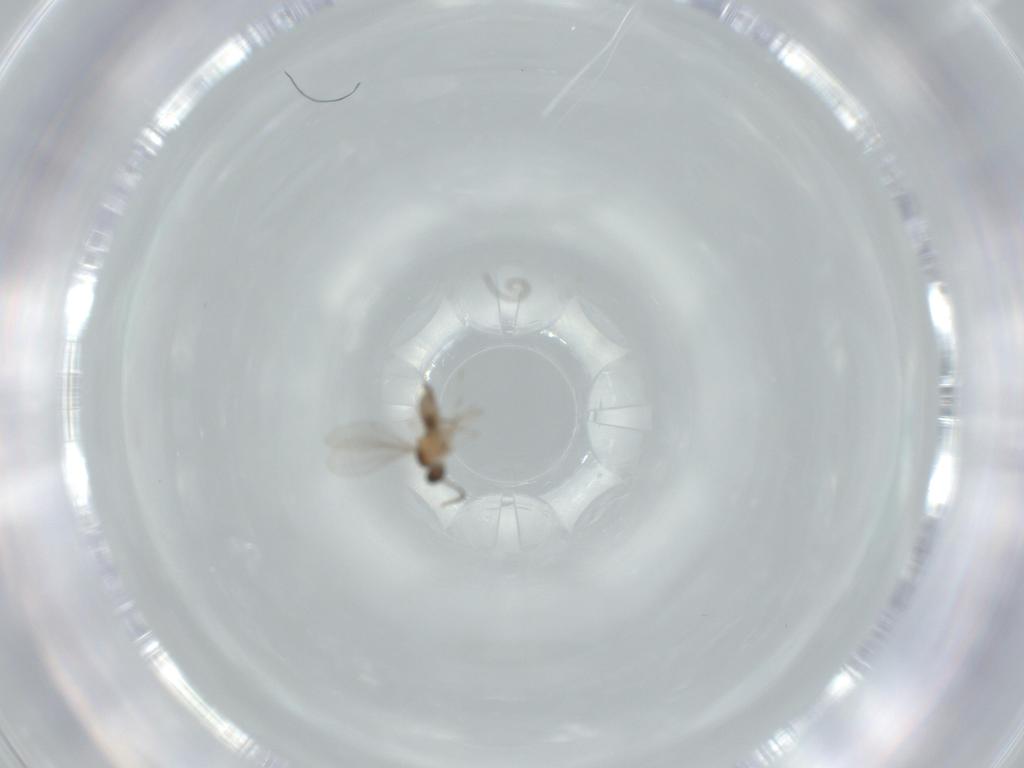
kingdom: Animalia
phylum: Arthropoda
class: Insecta
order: Diptera
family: Cecidomyiidae
